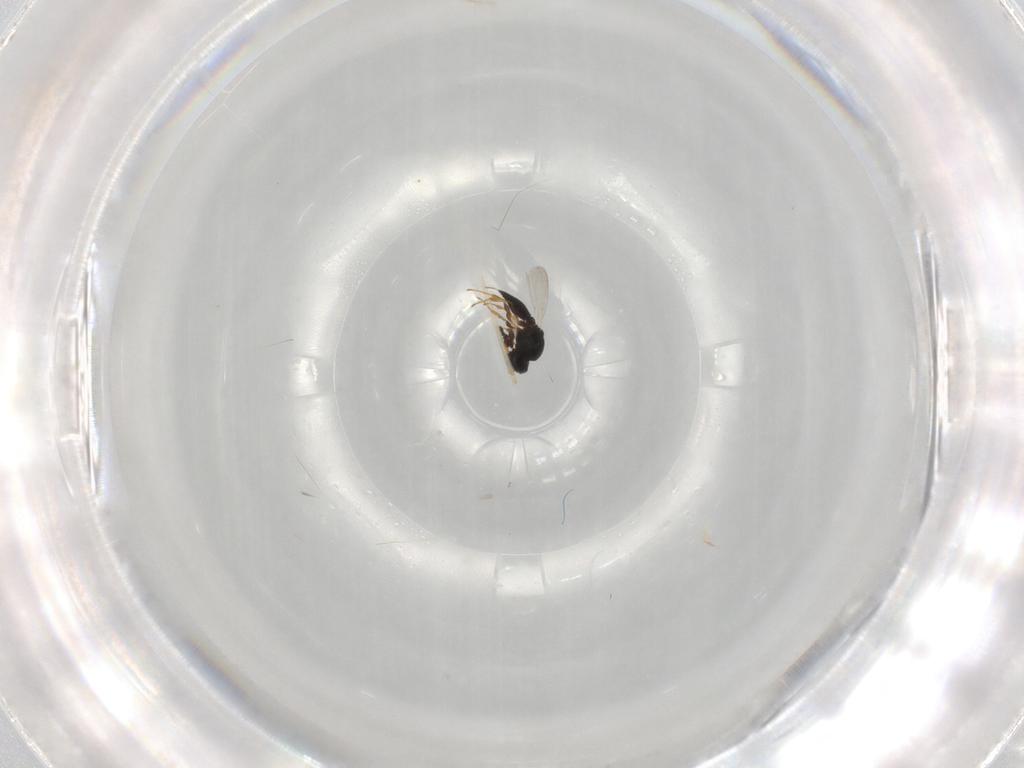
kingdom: Animalia
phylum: Arthropoda
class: Insecta
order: Hymenoptera
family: Platygastridae
